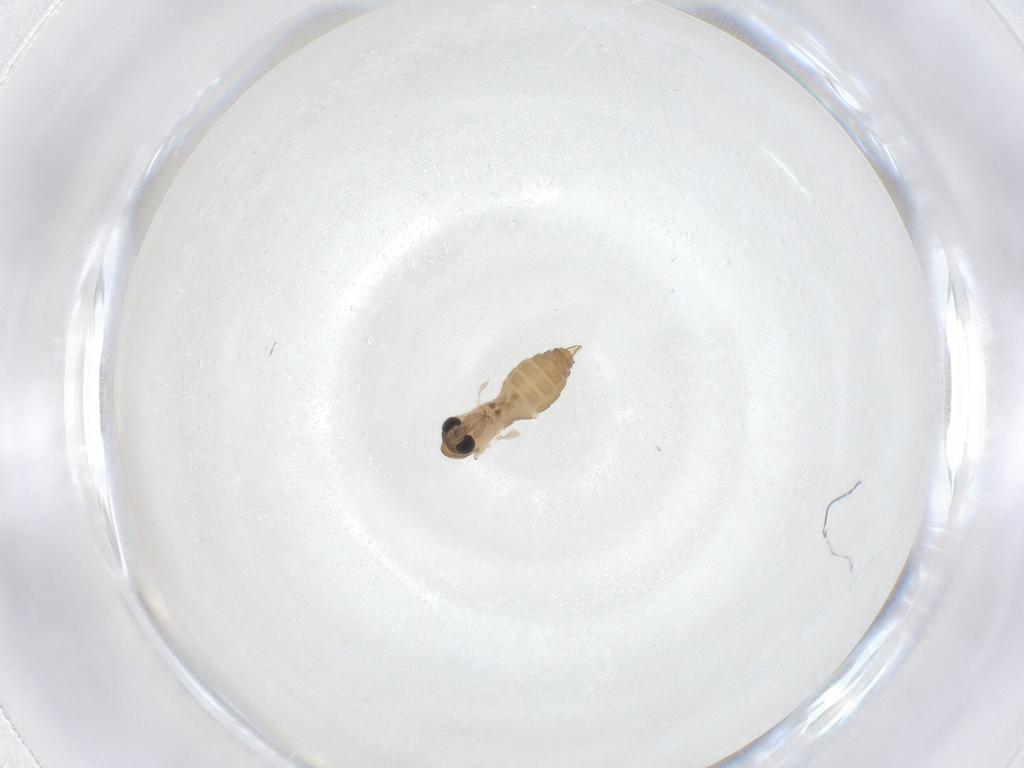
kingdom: Animalia
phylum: Arthropoda
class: Insecta
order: Diptera
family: Psychodidae
